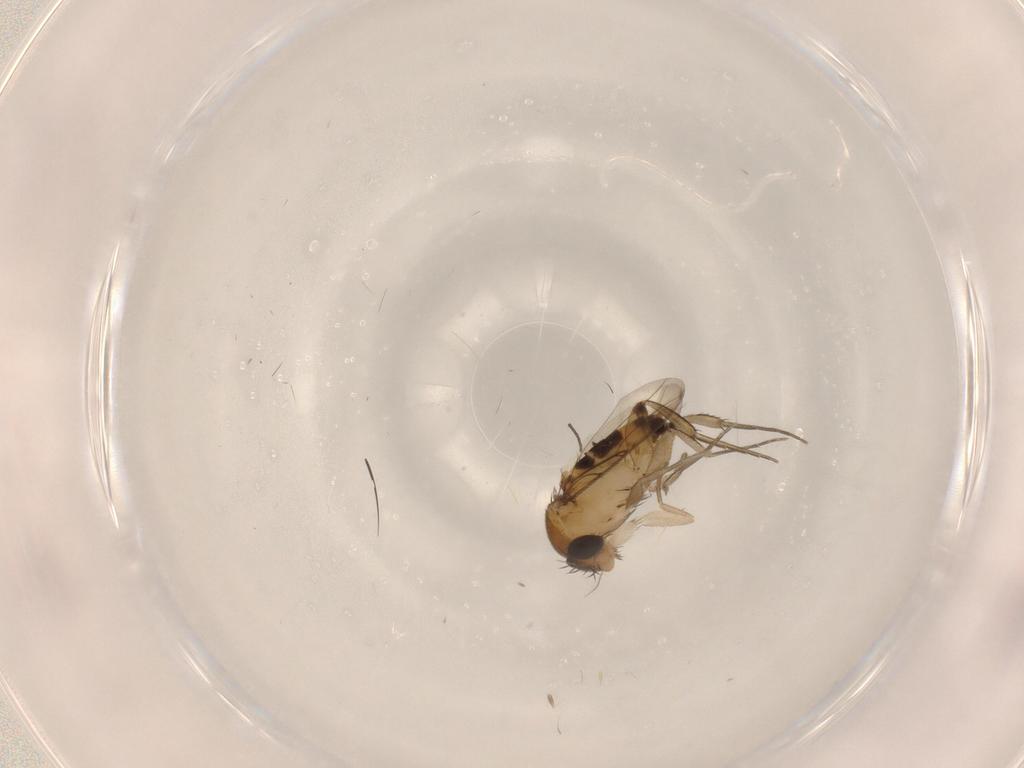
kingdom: Animalia
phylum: Arthropoda
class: Insecta
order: Diptera
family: Phoridae
